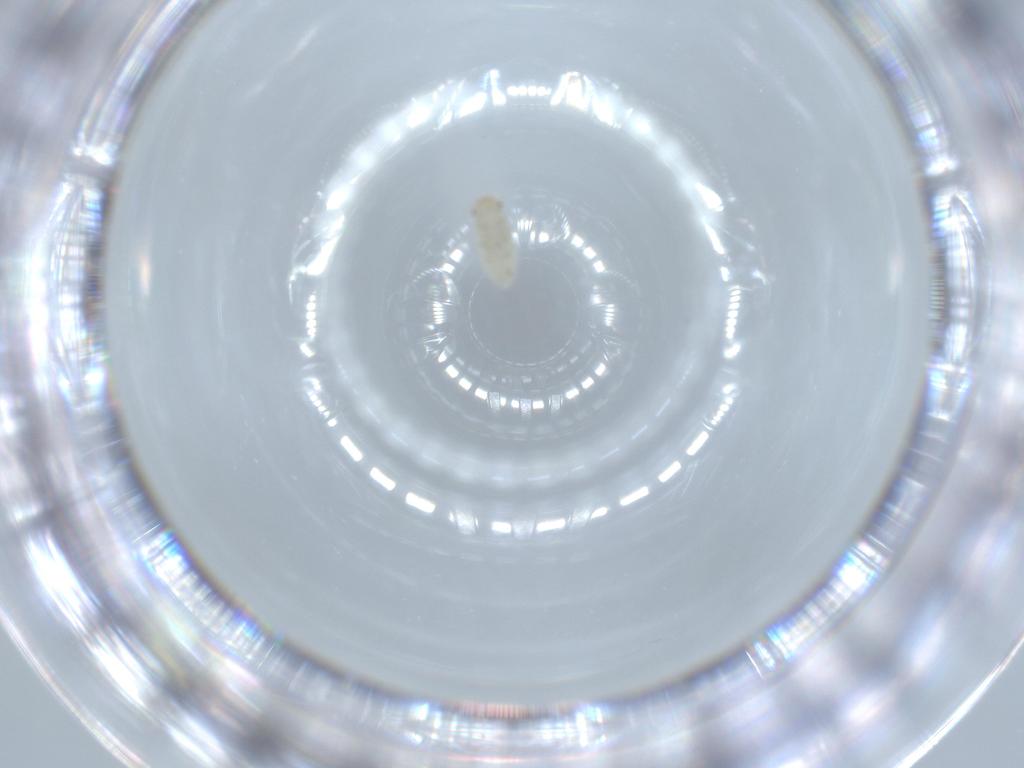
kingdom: Animalia
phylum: Arthropoda
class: Insecta
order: Coleoptera
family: Coccinellidae
